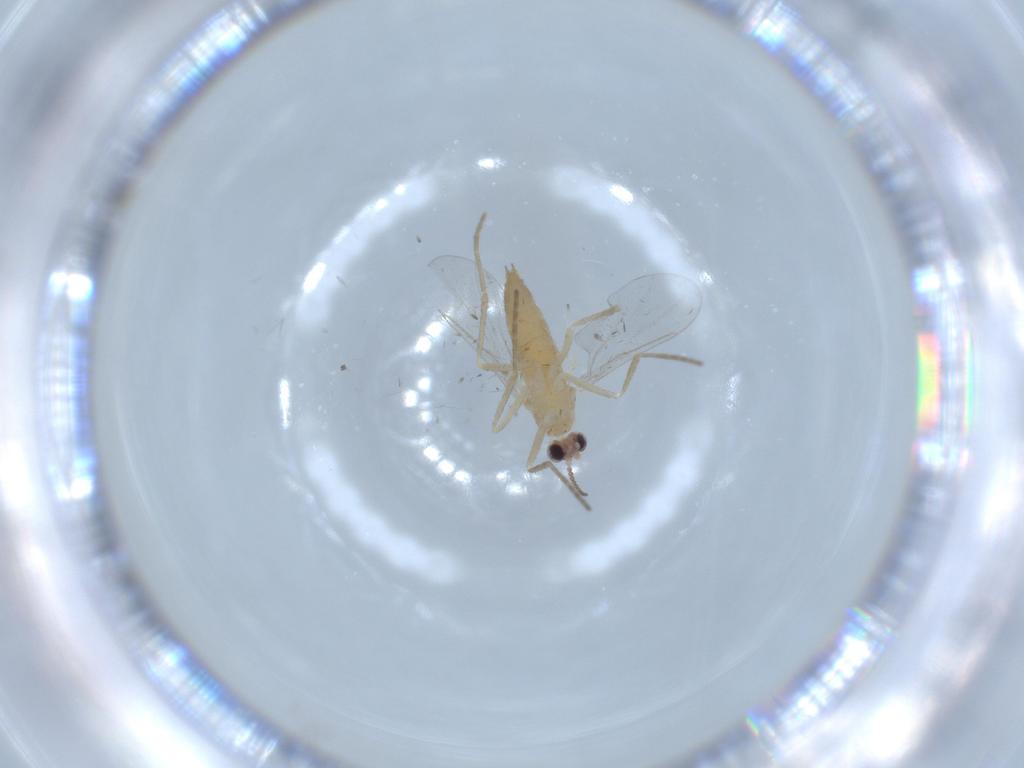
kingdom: Animalia
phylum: Arthropoda
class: Insecta
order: Diptera
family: Cecidomyiidae
